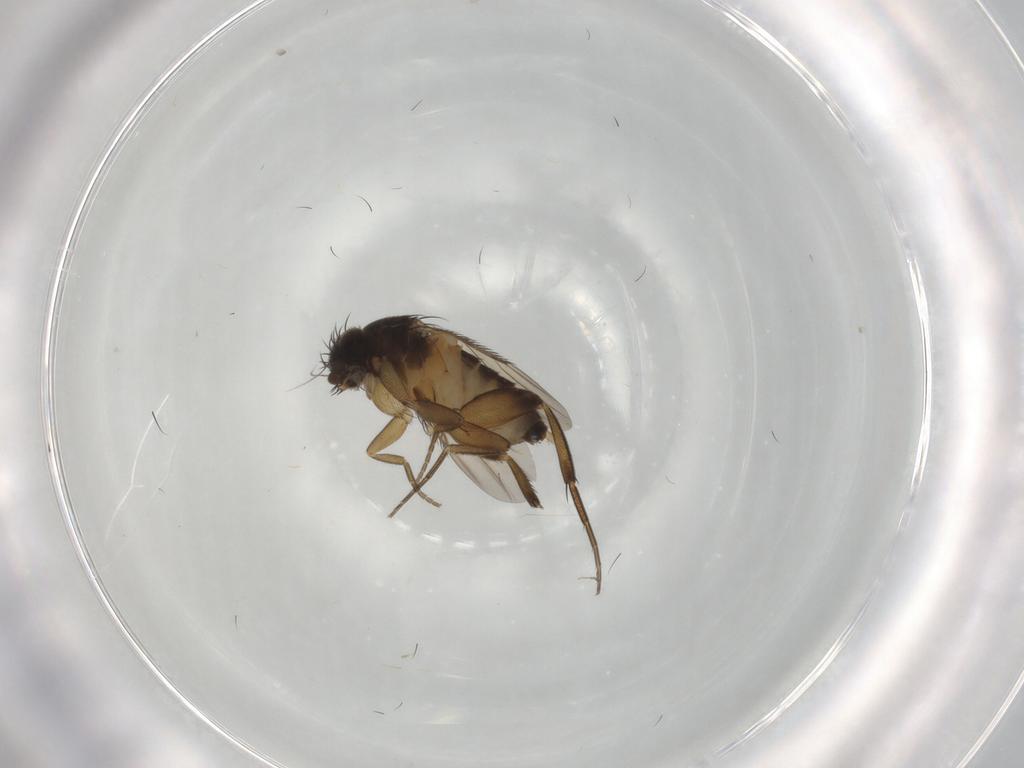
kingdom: Animalia
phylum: Arthropoda
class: Insecta
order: Diptera
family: Phoridae
